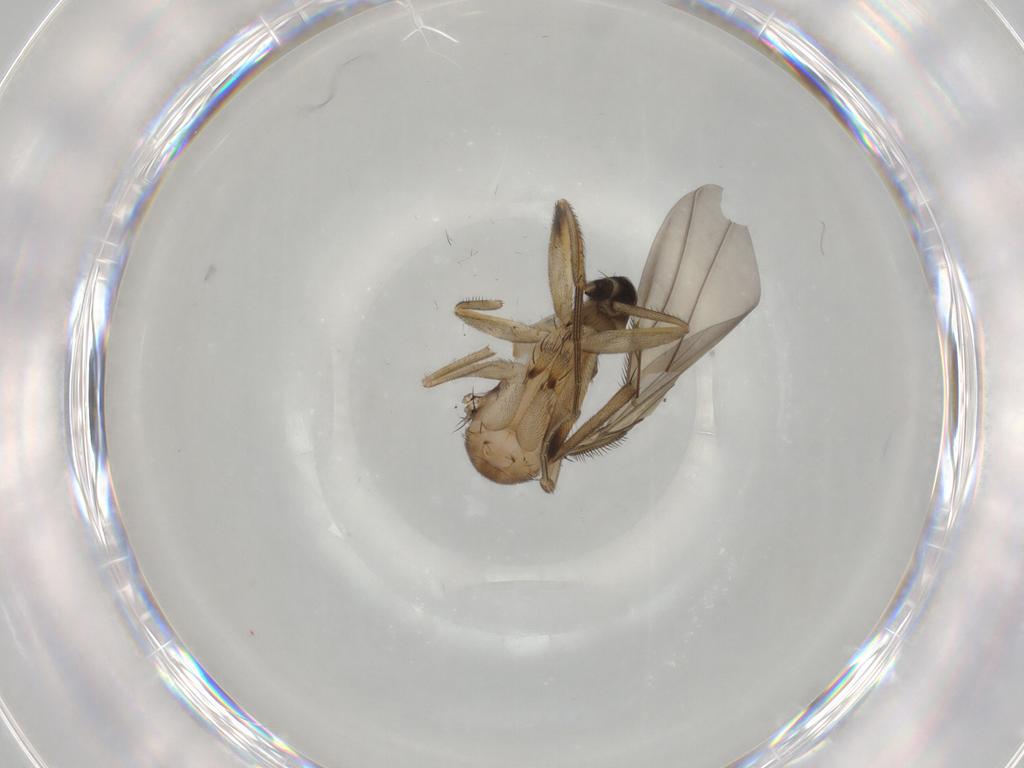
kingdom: Animalia
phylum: Arthropoda
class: Insecta
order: Diptera
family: Phoridae
